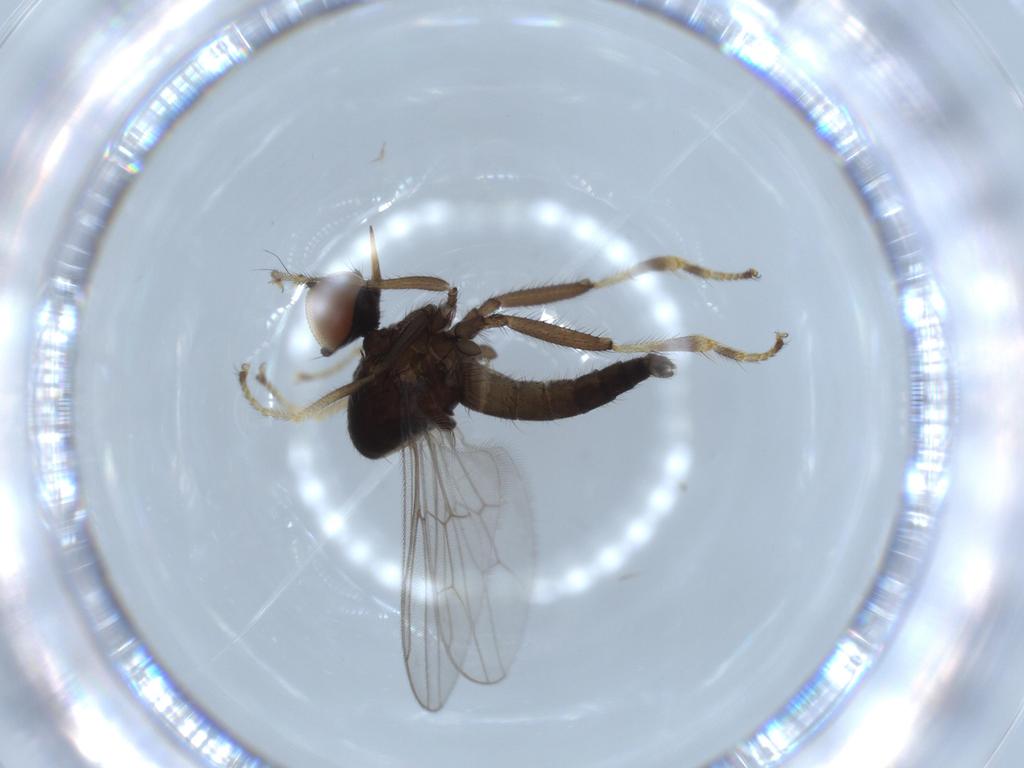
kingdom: Animalia
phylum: Arthropoda
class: Insecta
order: Diptera
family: Hybotidae
